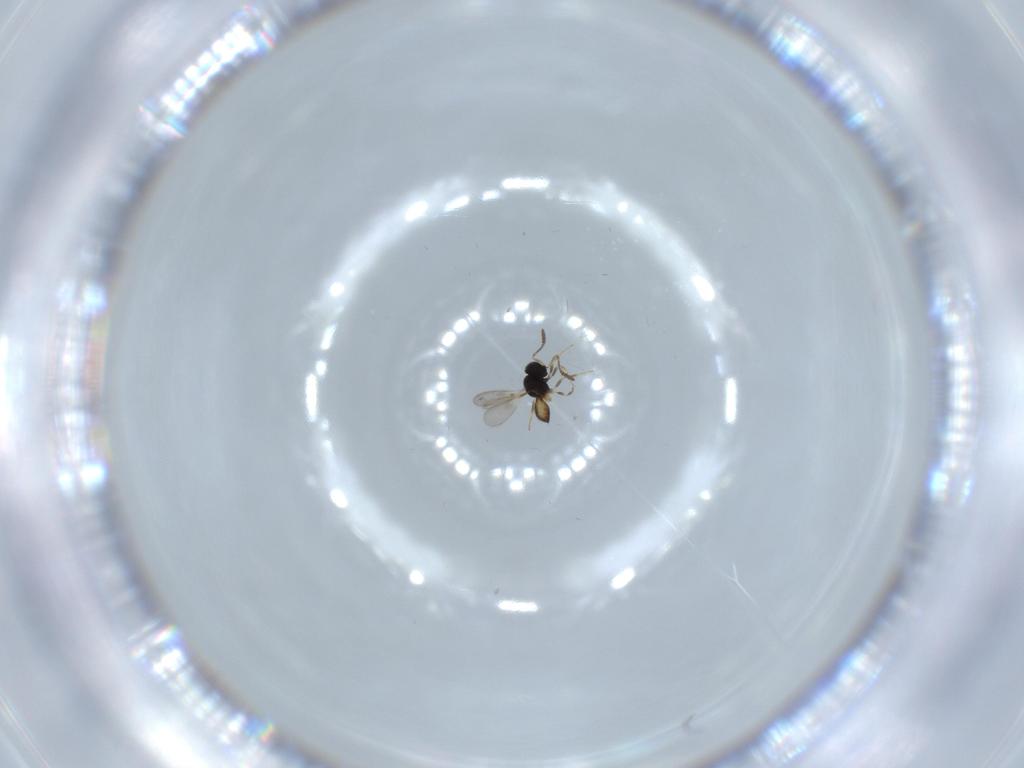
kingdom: Animalia
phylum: Arthropoda
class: Insecta
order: Hymenoptera
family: Scelionidae
